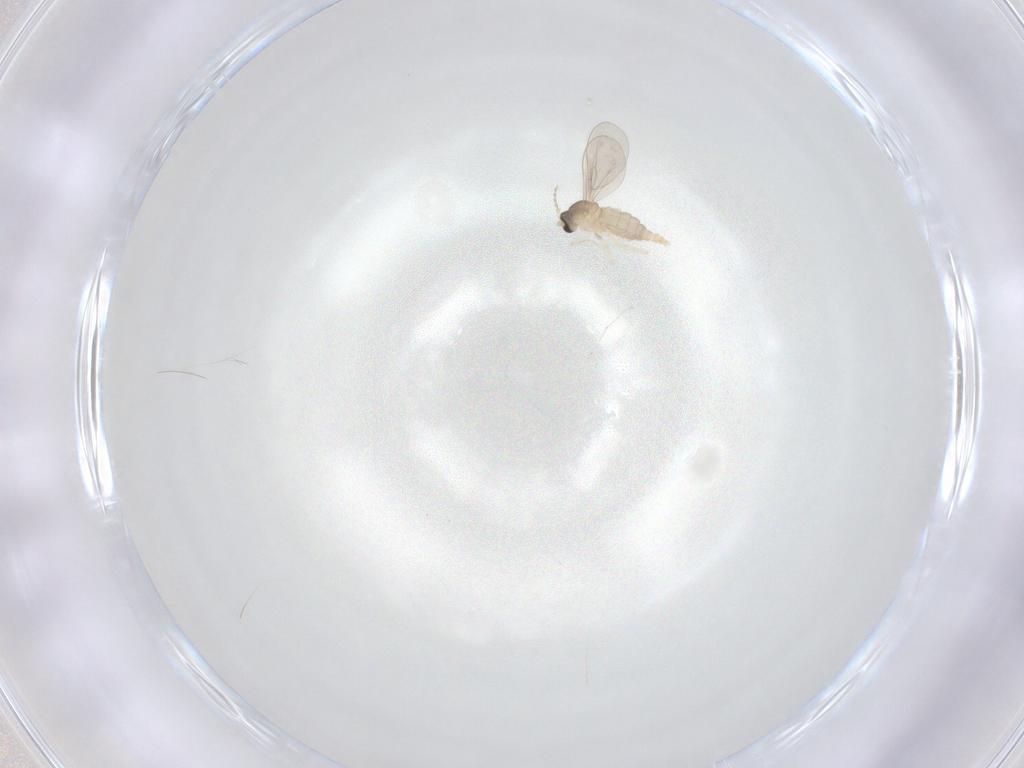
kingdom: Animalia
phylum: Arthropoda
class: Insecta
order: Diptera
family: Cecidomyiidae
